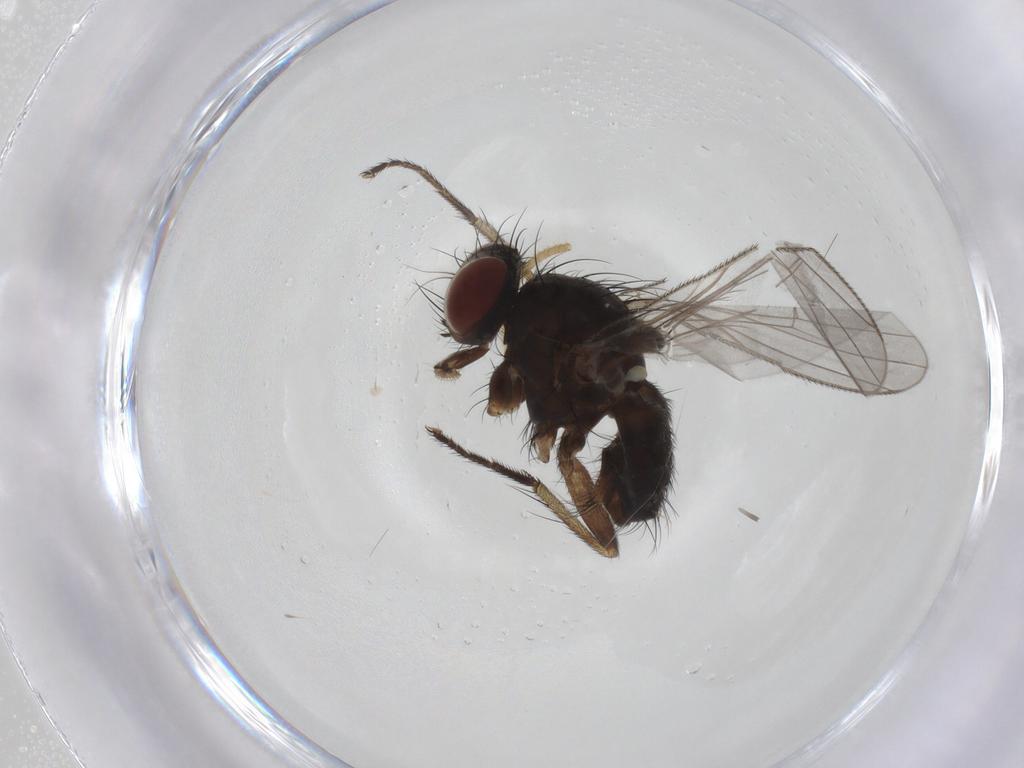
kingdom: Animalia
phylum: Arthropoda
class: Insecta
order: Diptera
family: Muscidae
